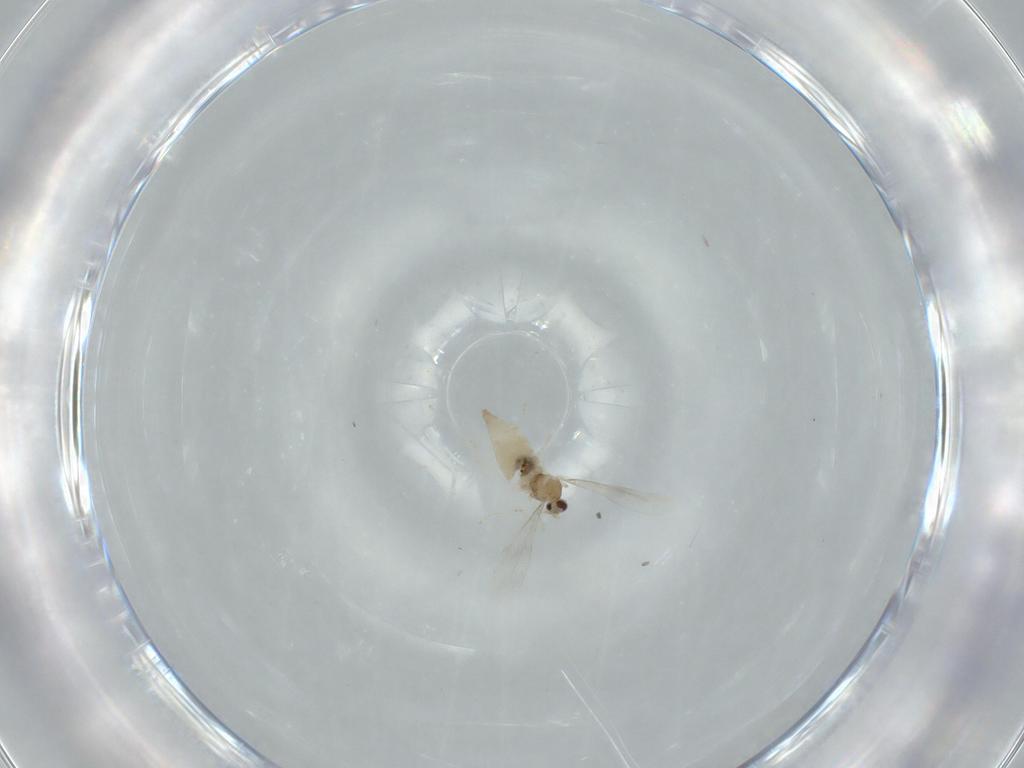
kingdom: Animalia
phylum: Arthropoda
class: Insecta
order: Diptera
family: Cecidomyiidae
